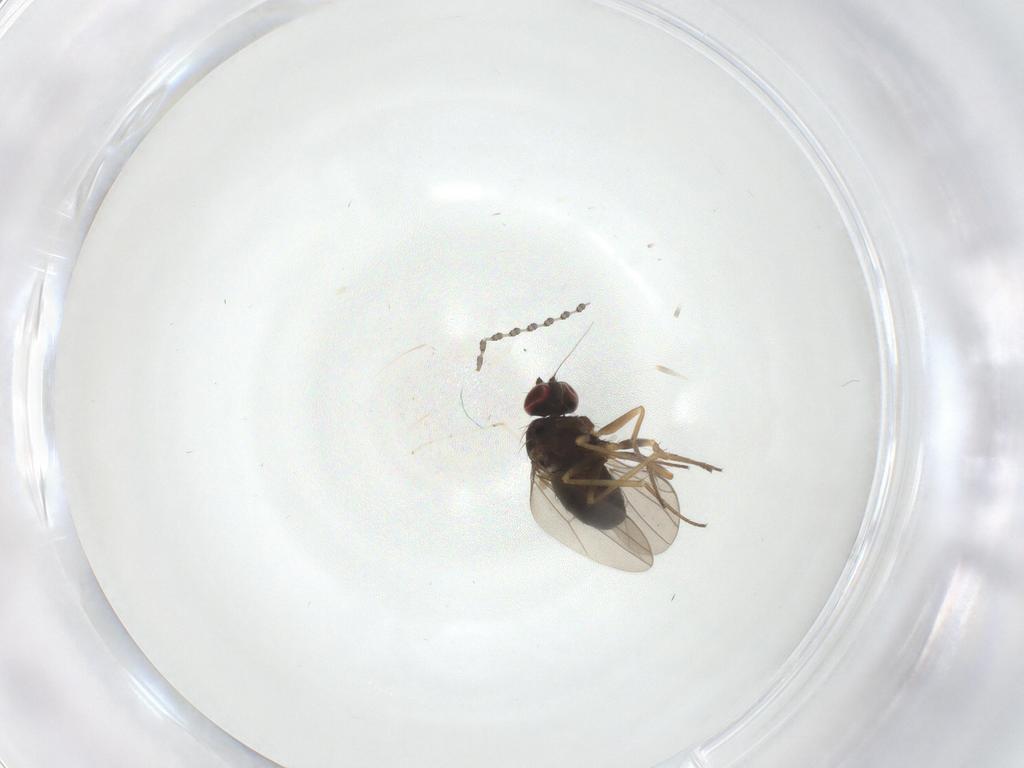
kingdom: Animalia
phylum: Arthropoda
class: Insecta
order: Diptera
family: Dolichopodidae
